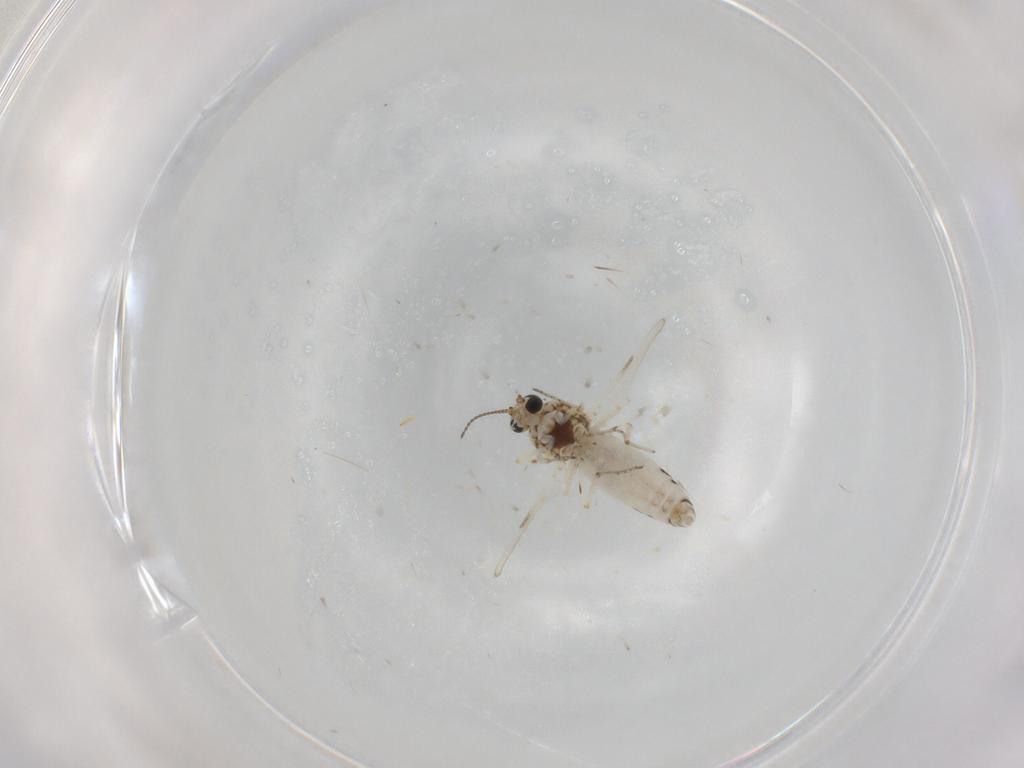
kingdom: Animalia
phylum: Arthropoda
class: Insecta
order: Diptera
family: Ceratopogonidae
